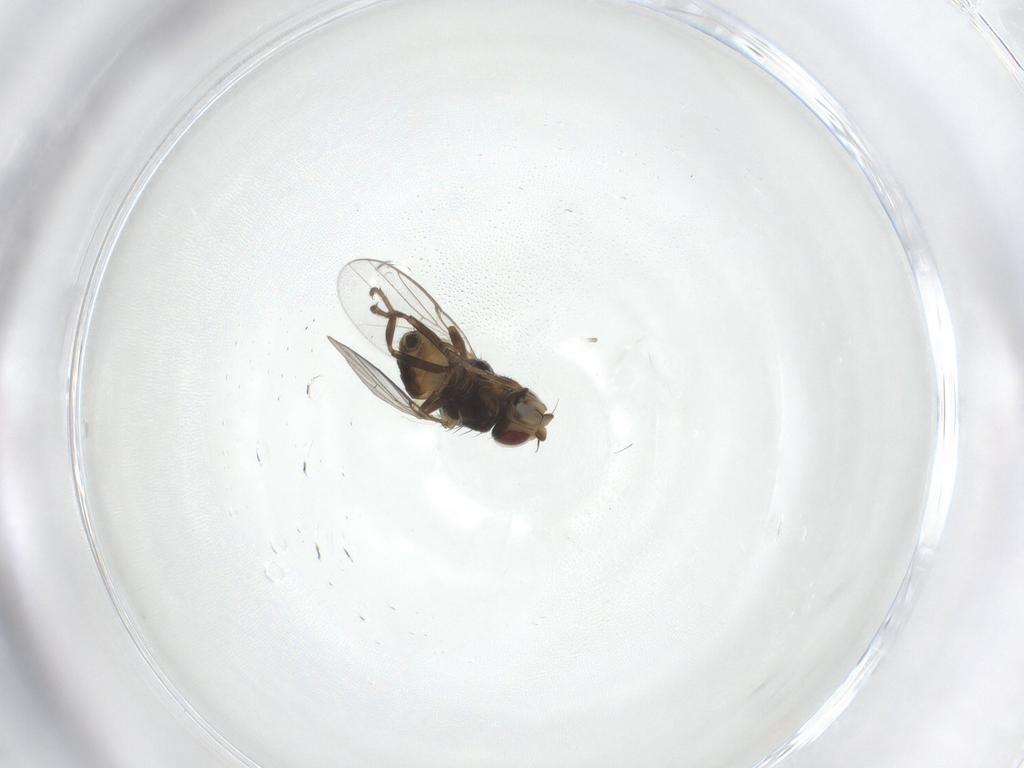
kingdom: Animalia
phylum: Arthropoda
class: Insecta
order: Diptera
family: Chloropidae
